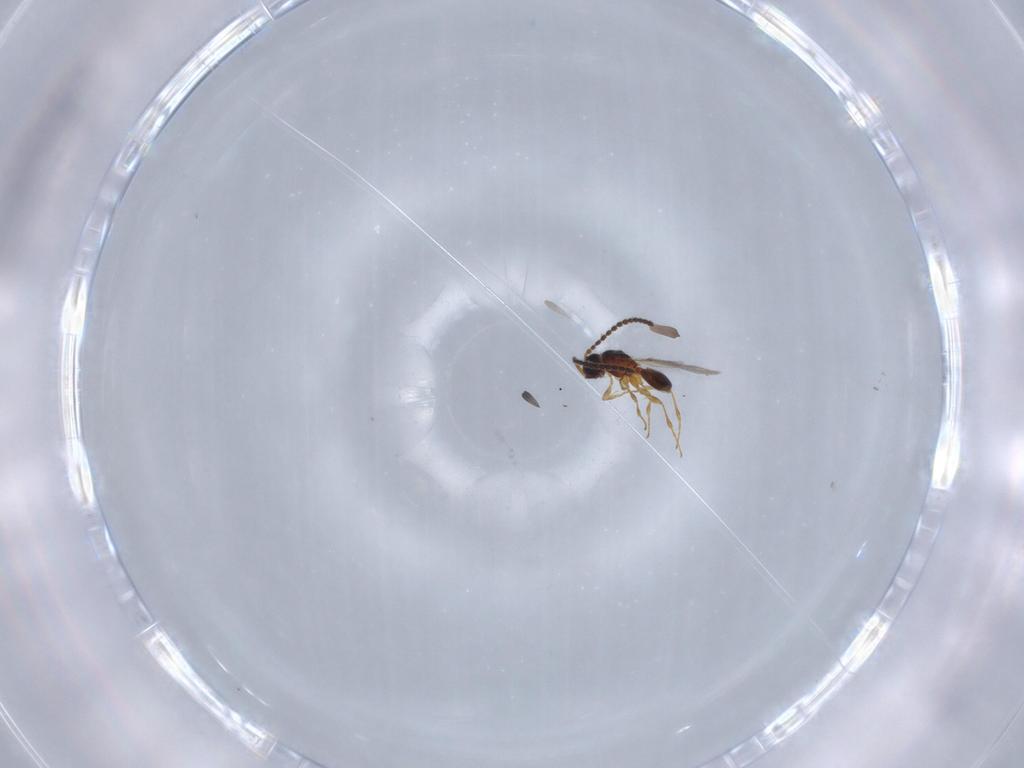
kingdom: Animalia
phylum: Arthropoda
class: Insecta
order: Hymenoptera
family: Diapriidae
